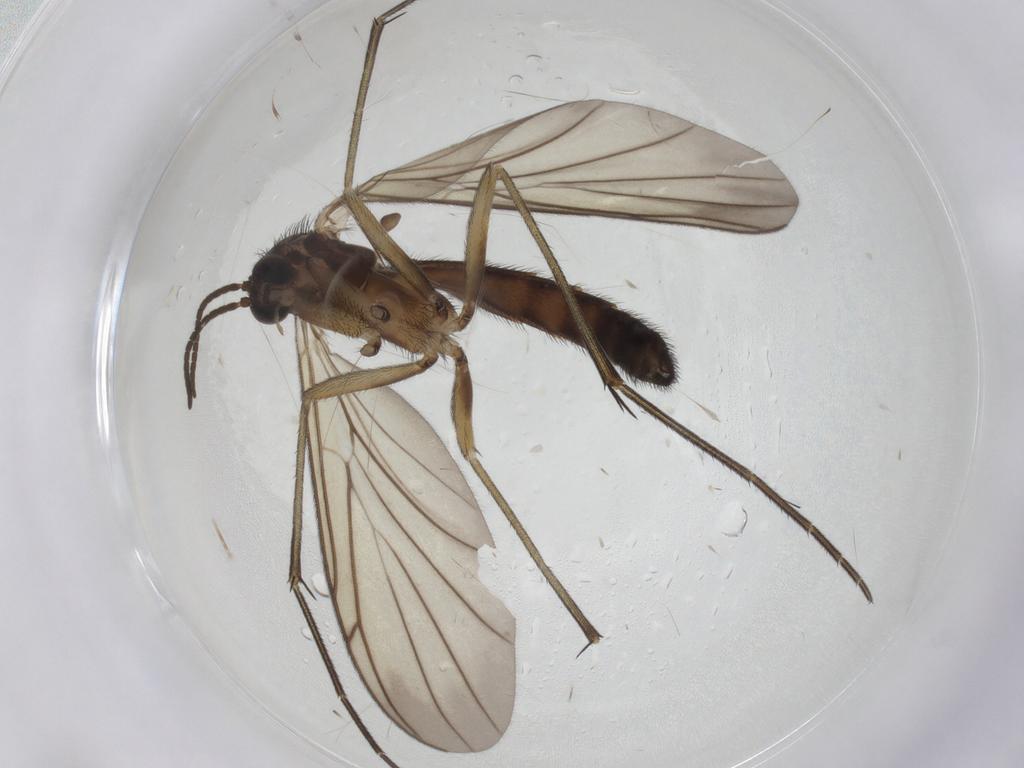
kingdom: Animalia
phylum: Arthropoda
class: Insecta
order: Diptera
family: Keroplatidae
